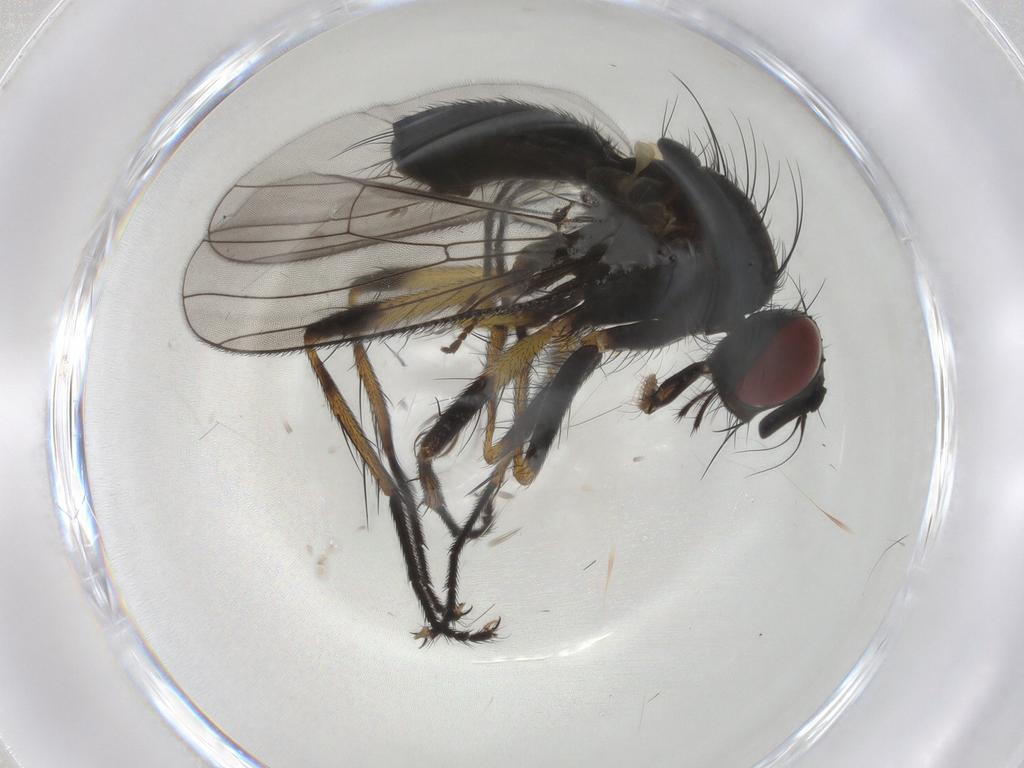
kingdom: Animalia
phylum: Arthropoda
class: Insecta
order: Diptera
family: Muscidae
